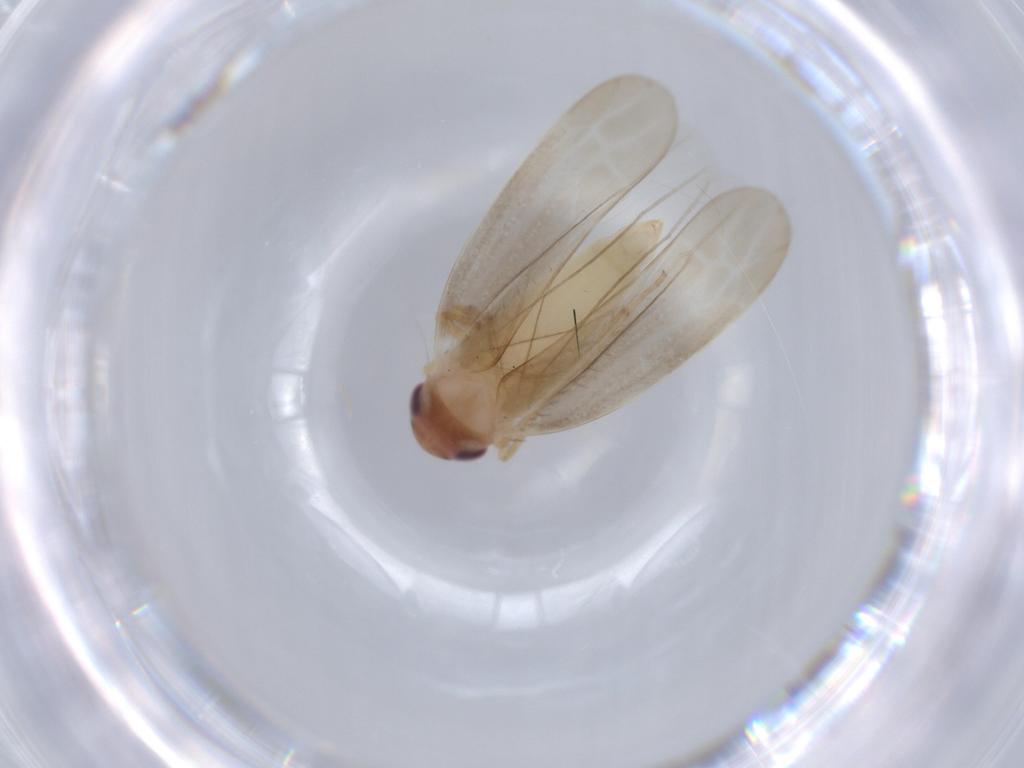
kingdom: Animalia
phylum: Arthropoda
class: Insecta
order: Hemiptera
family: Cicadellidae
